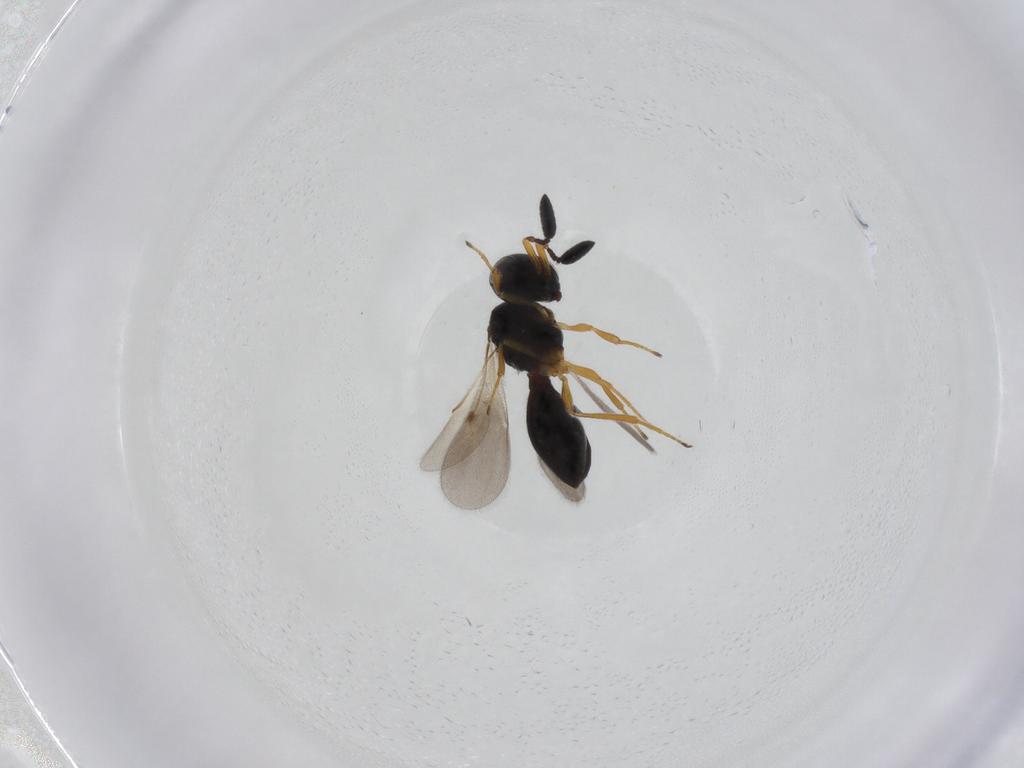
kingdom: Animalia
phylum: Arthropoda
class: Insecta
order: Hymenoptera
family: Scelionidae
